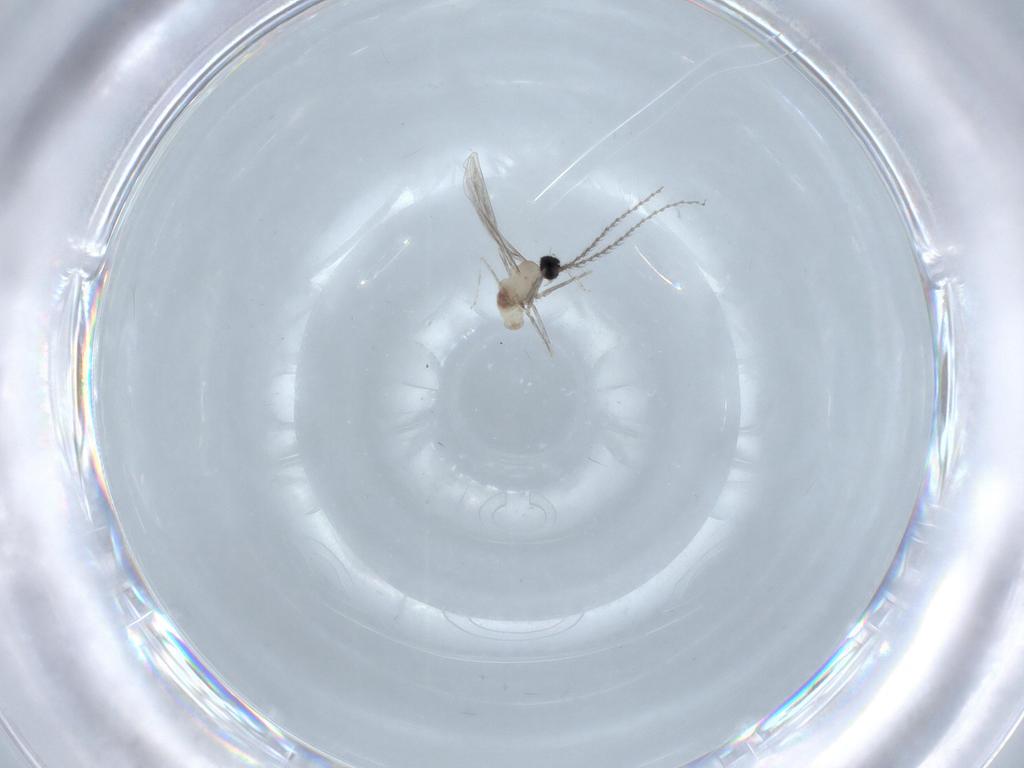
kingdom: Animalia
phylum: Arthropoda
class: Insecta
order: Diptera
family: Cecidomyiidae
